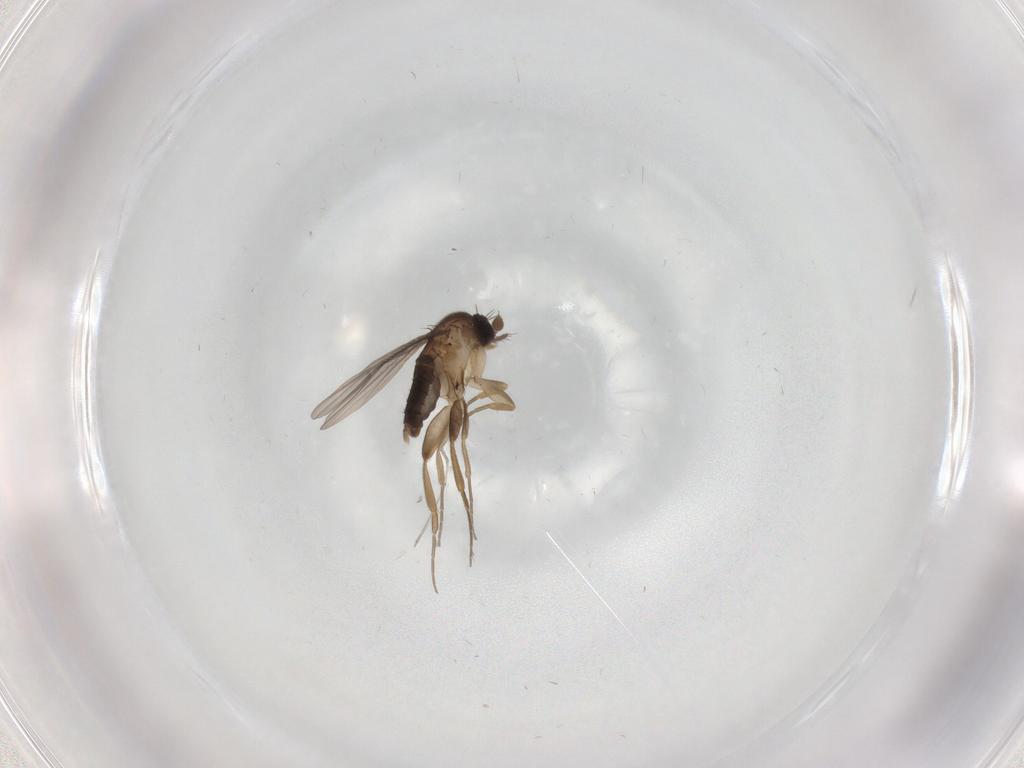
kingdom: Animalia
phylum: Arthropoda
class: Insecta
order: Diptera
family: Phoridae
